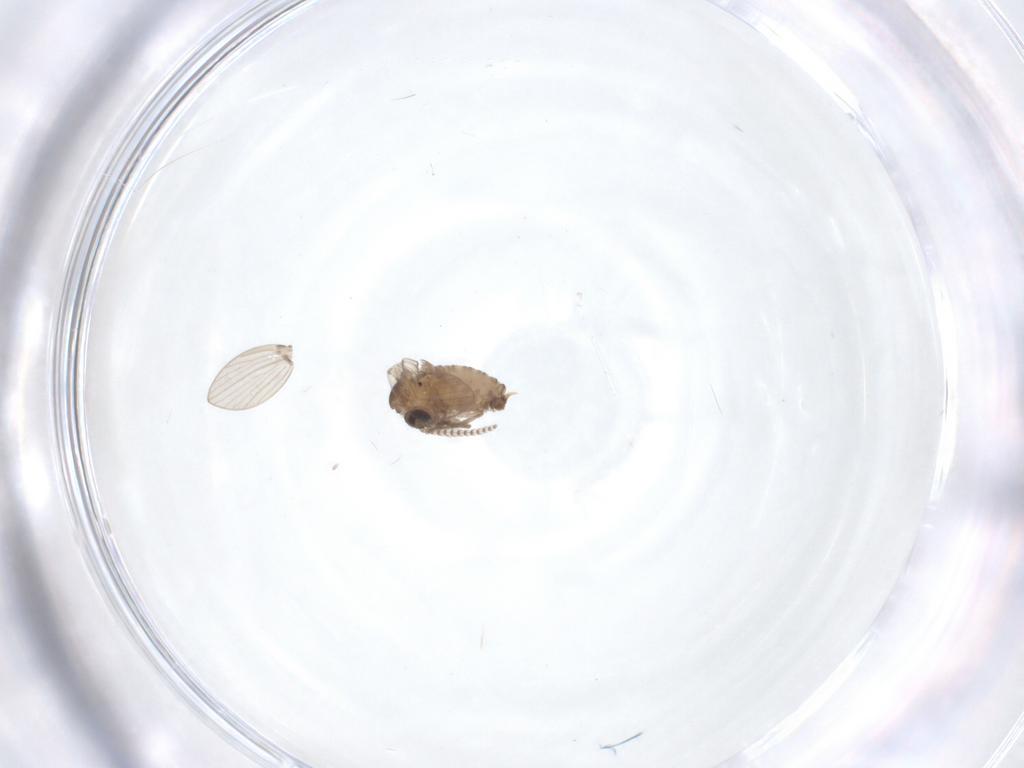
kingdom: Animalia
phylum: Arthropoda
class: Insecta
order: Diptera
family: Psychodidae
